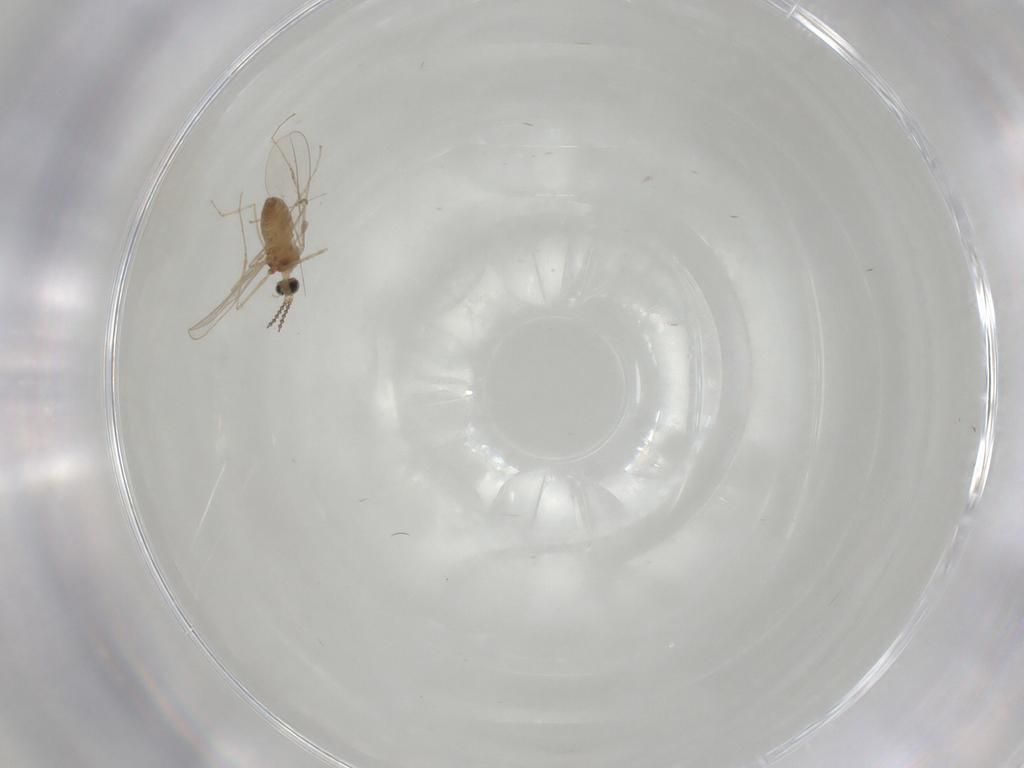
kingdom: Animalia
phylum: Arthropoda
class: Insecta
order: Diptera
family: Cecidomyiidae
